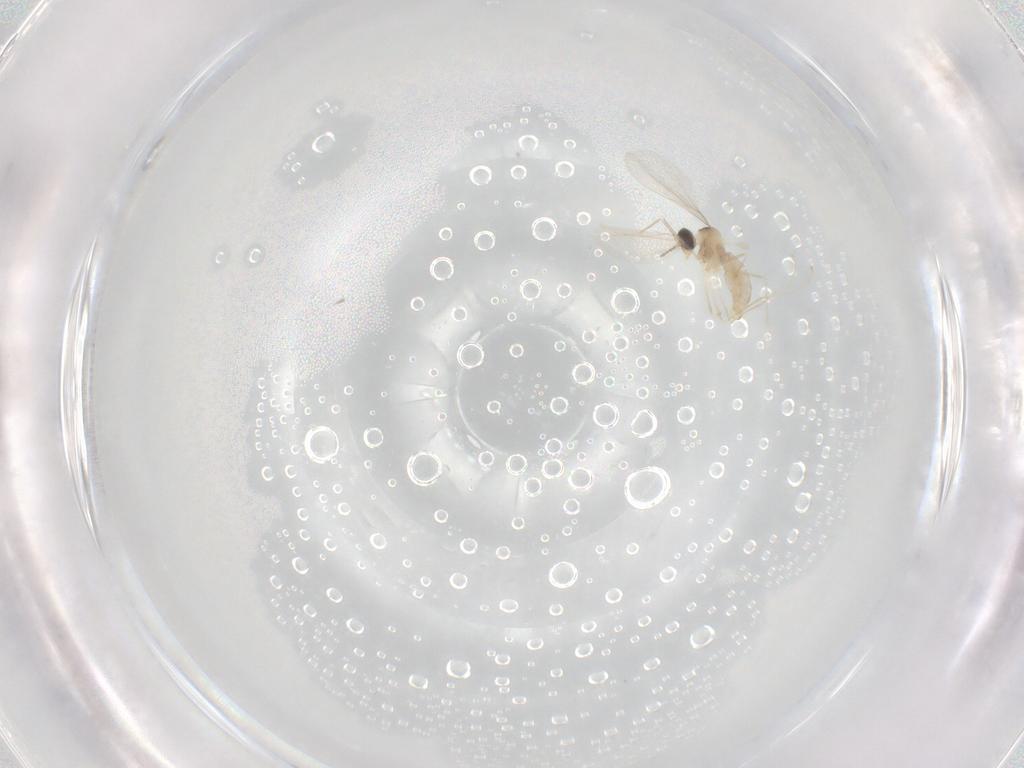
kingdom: Animalia
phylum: Arthropoda
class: Insecta
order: Diptera
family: Cecidomyiidae
